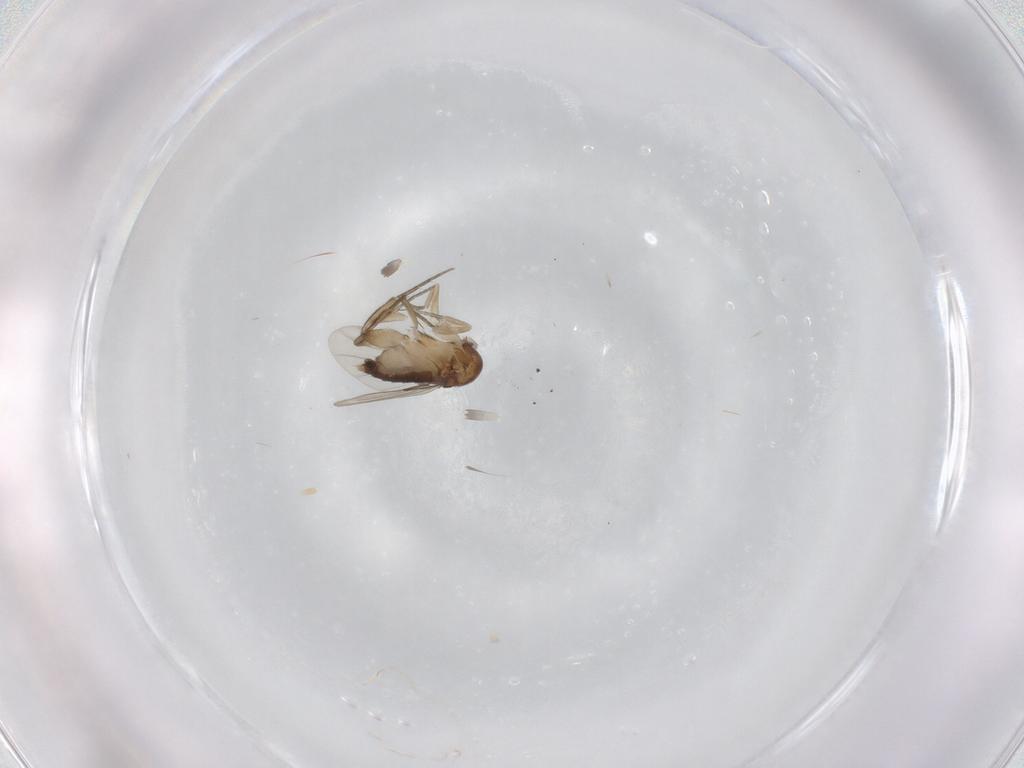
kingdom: Animalia
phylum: Arthropoda
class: Insecta
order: Diptera
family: Phoridae
